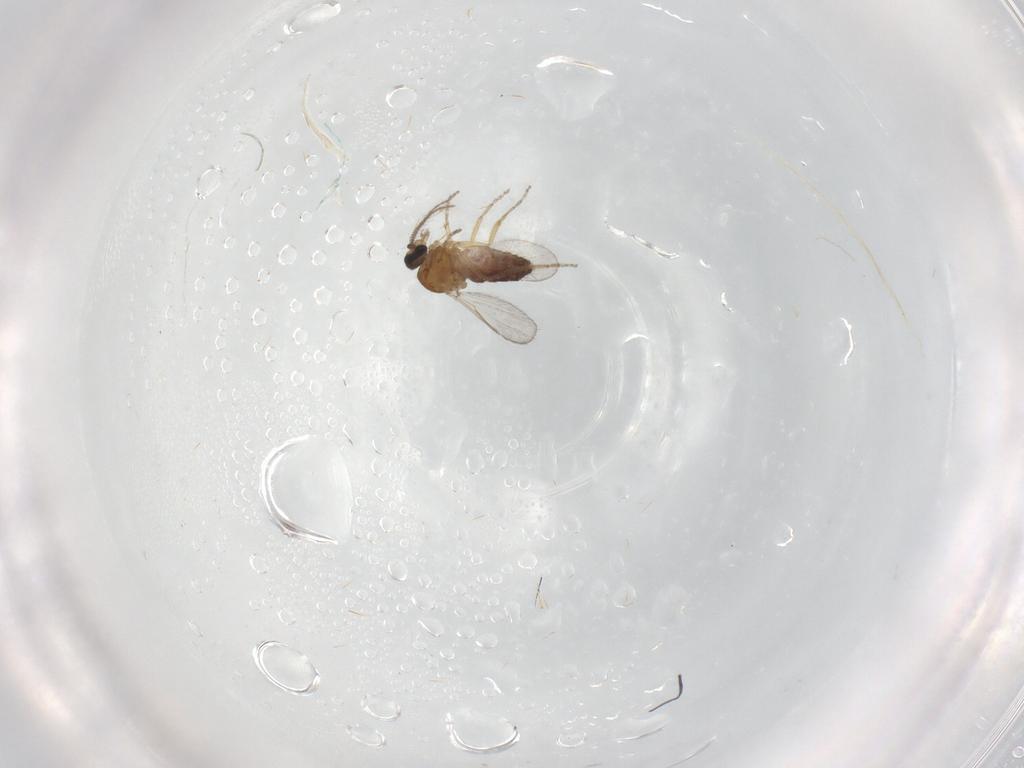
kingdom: Animalia
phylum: Arthropoda
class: Insecta
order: Diptera
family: Ceratopogonidae
